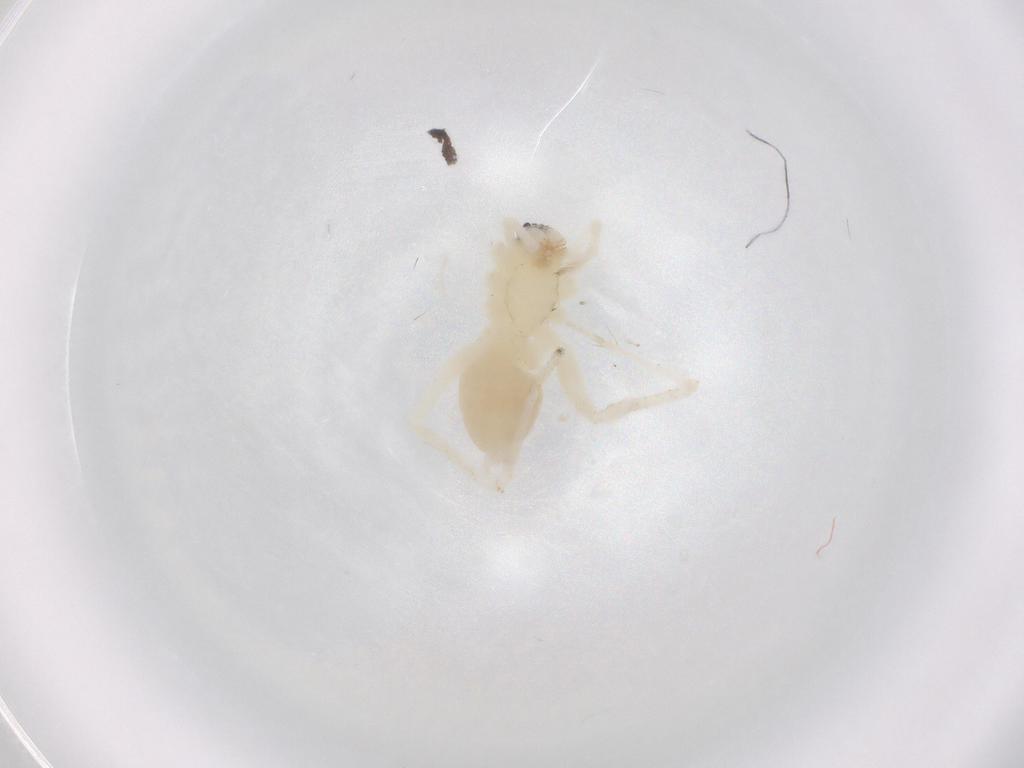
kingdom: Animalia
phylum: Arthropoda
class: Arachnida
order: Araneae
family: Anyphaenidae
